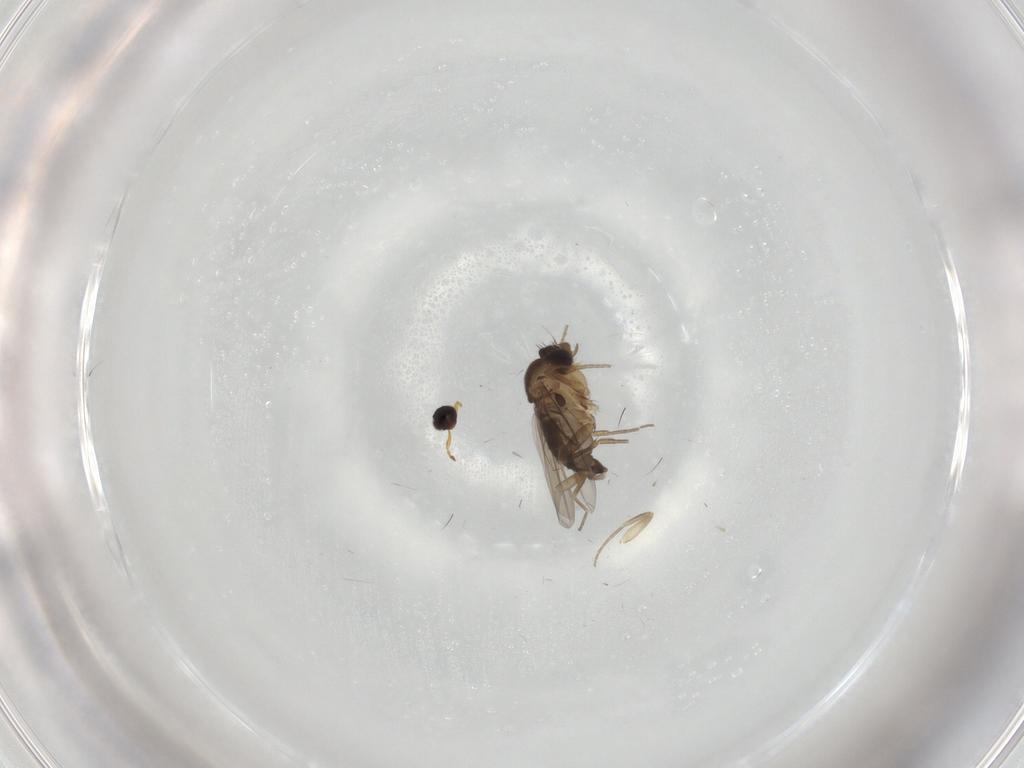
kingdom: Animalia
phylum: Arthropoda
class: Insecta
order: Diptera
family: Phoridae
